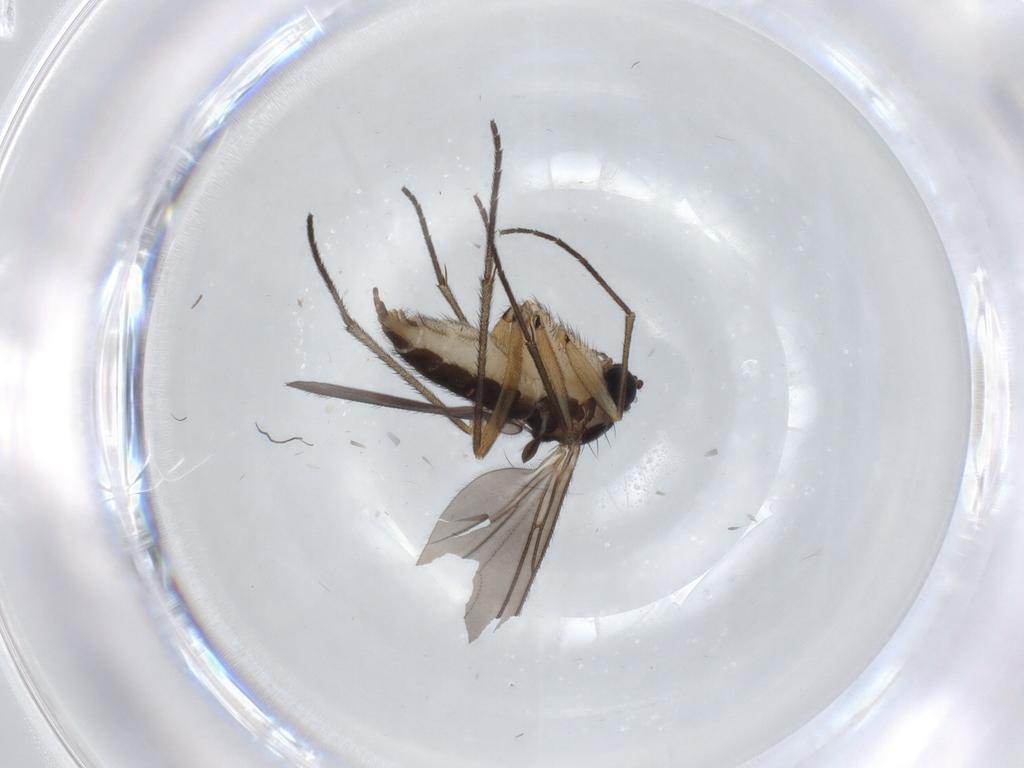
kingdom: Animalia
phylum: Arthropoda
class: Insecta
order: Diptera
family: Sciaridae
